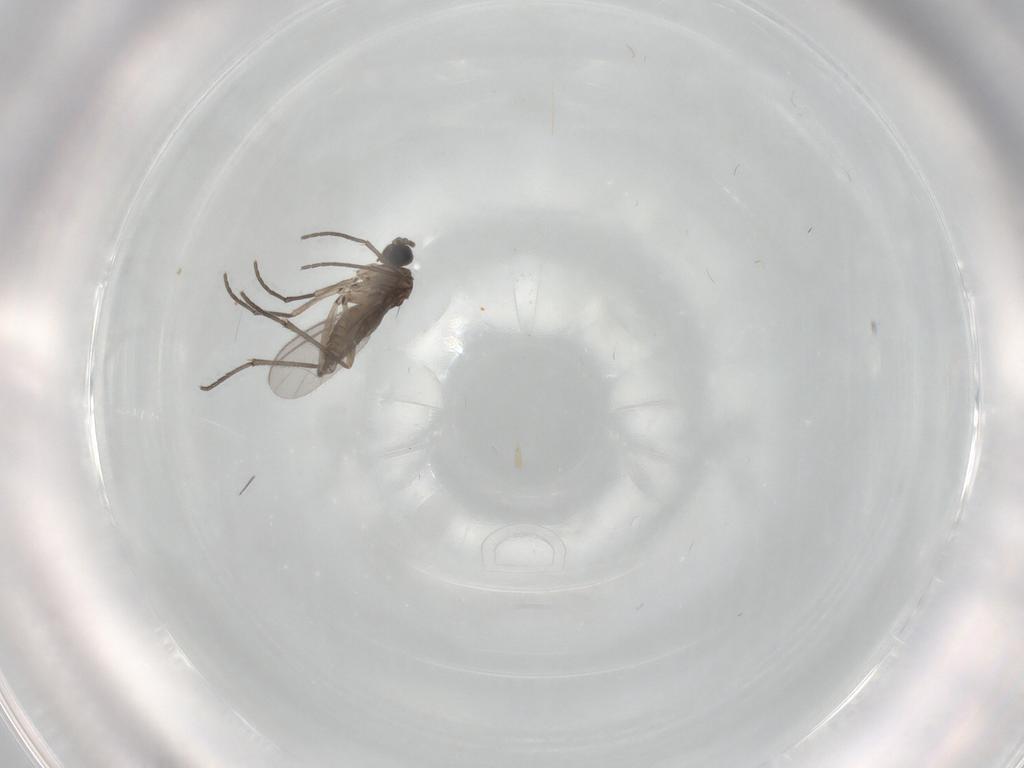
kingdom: Animalia
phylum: Arthropoda
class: Insecta
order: Diptera
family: Sciaridae
